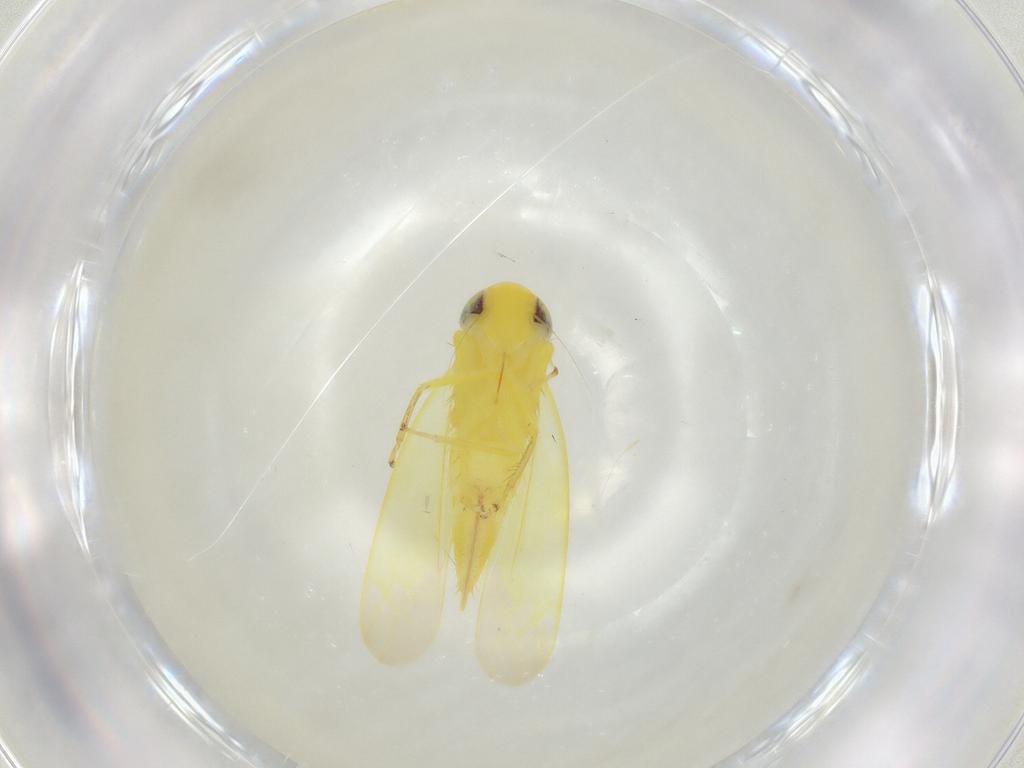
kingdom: Animalia
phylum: Arthropoda
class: Insecta
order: Hemiptera
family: Cicadellidae
